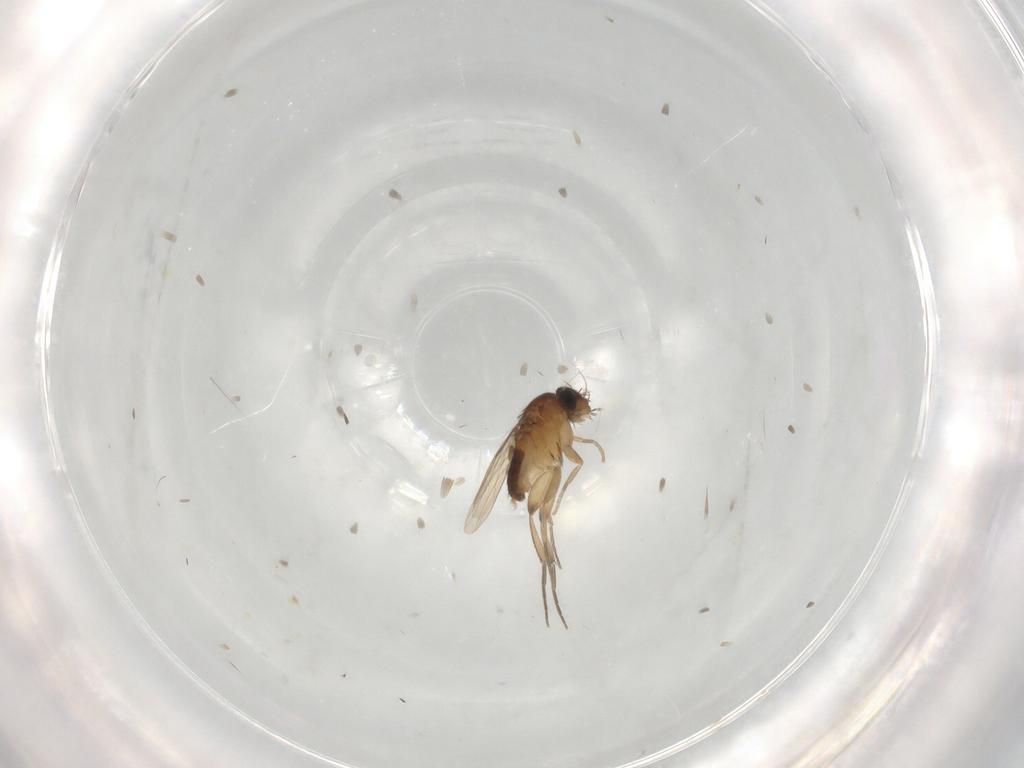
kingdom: Animalia
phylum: Arthropoda
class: Insecta
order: Diptera
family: Phoridae
